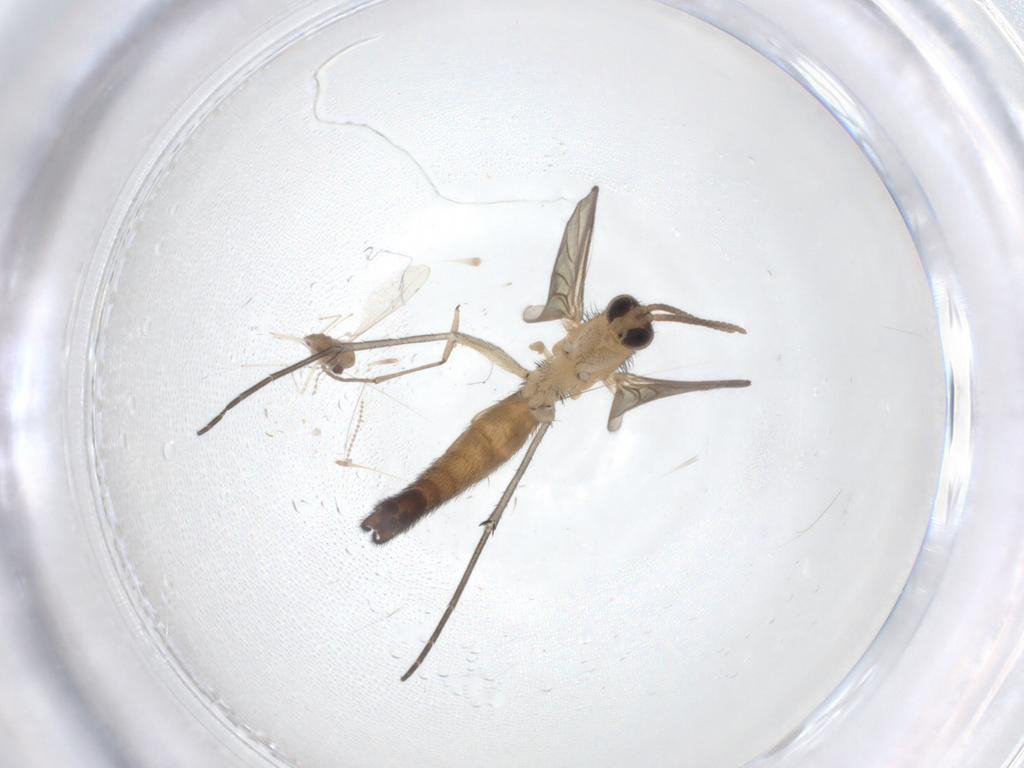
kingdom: Animalia
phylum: Arthropoda
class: Insecta
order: Diptera
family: Keroplatidae
